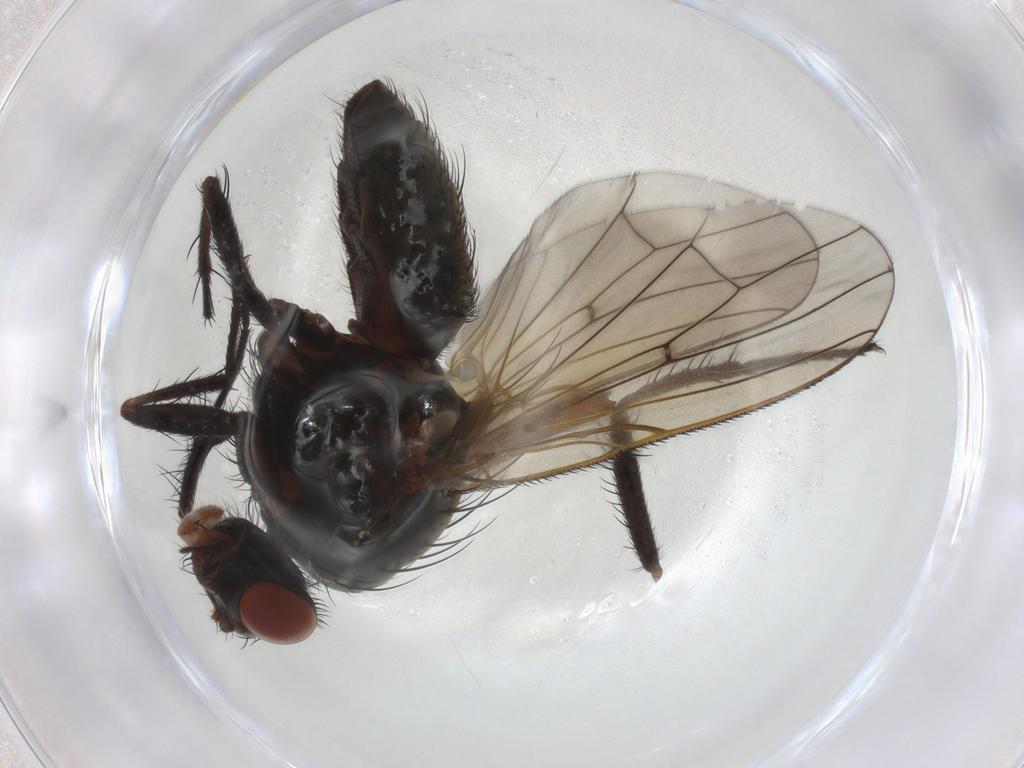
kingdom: Animalia
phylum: Arthropoda
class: Insecta
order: Diptera
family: Anthomyiidae
